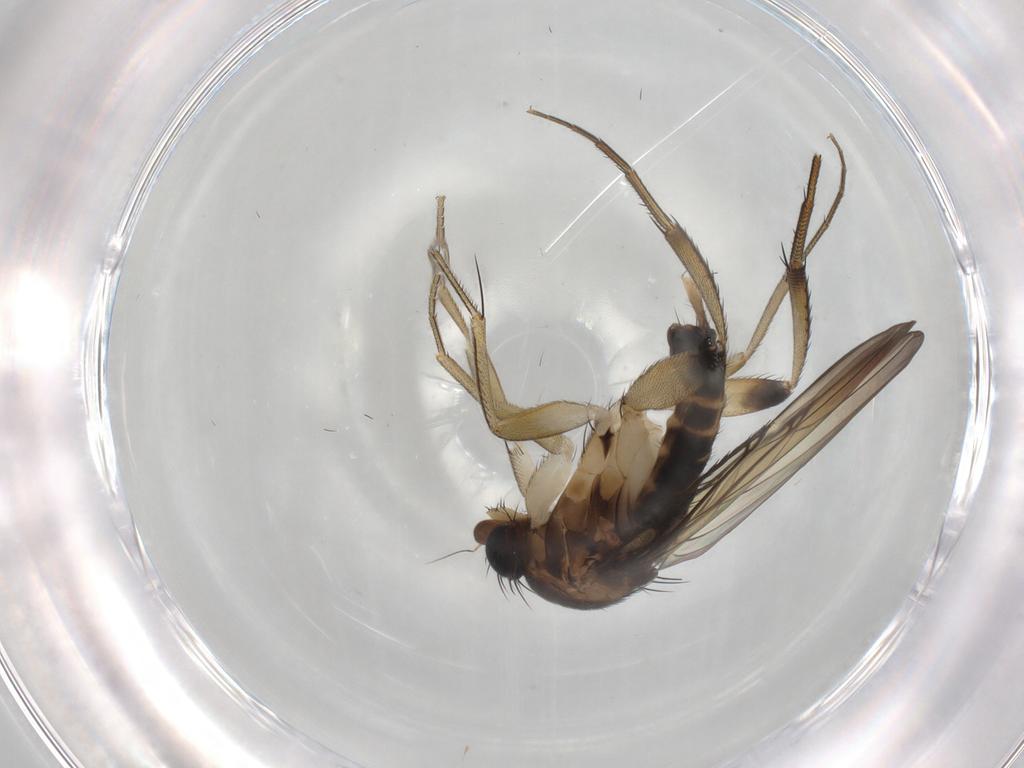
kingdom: Animalia
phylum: Arthropoda
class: Insecta
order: Diptera
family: Phoridae
